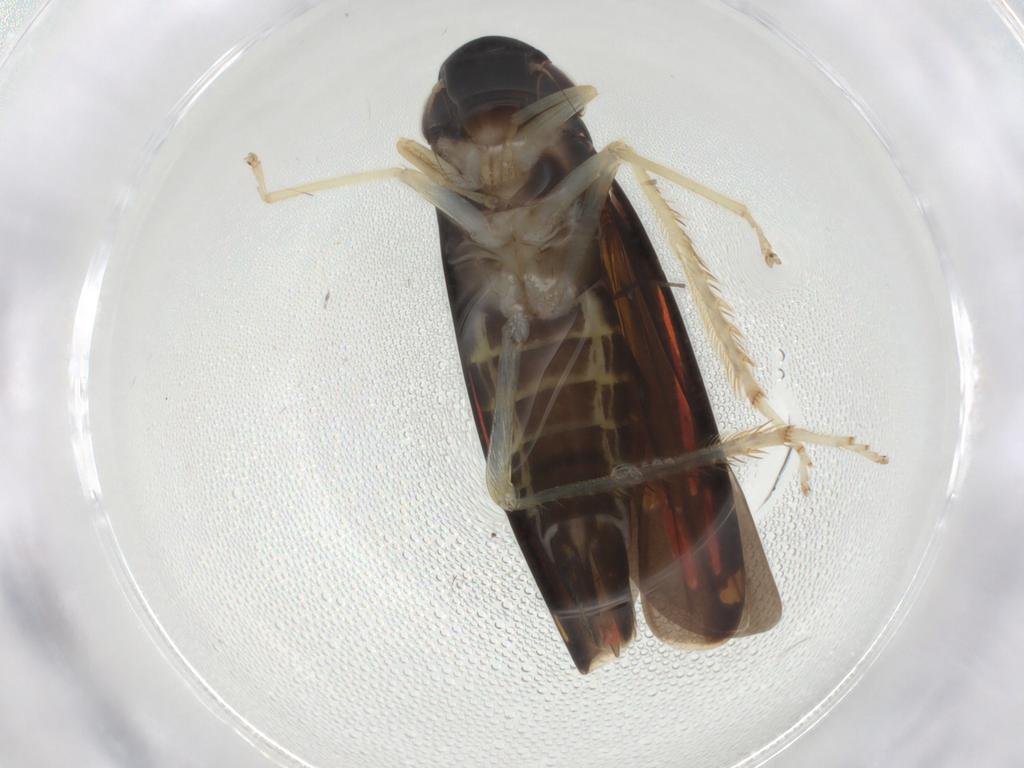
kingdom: Animalia
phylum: Arthropoda
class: Insecta
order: Hemiptera
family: Cicadellidae
